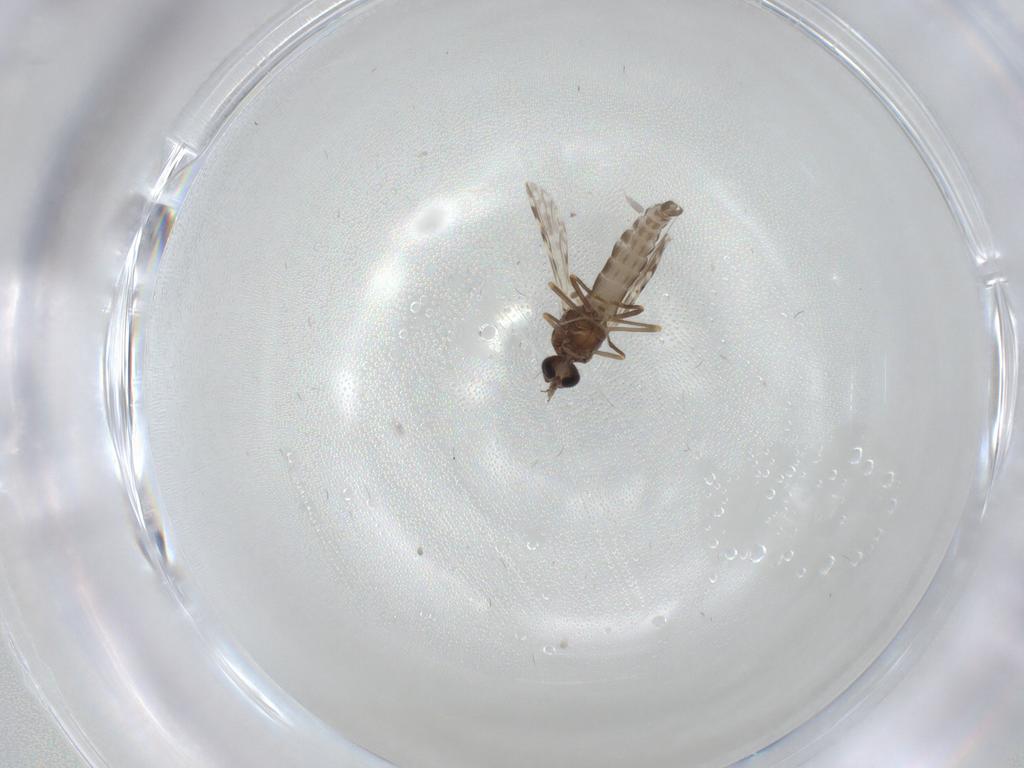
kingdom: Animalia
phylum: Arthropoda
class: Insecta
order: Diptera
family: Ceratopogonidae
